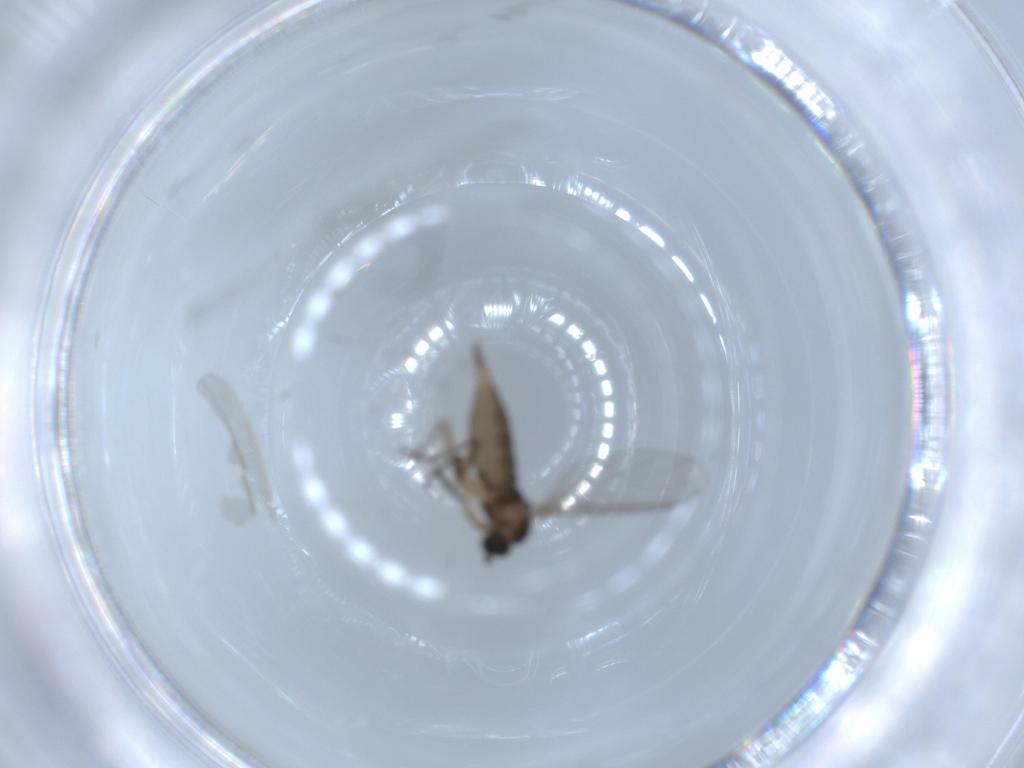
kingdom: Animalia
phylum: Arthropoda
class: Insecta
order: Diptera
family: Sciaridae
